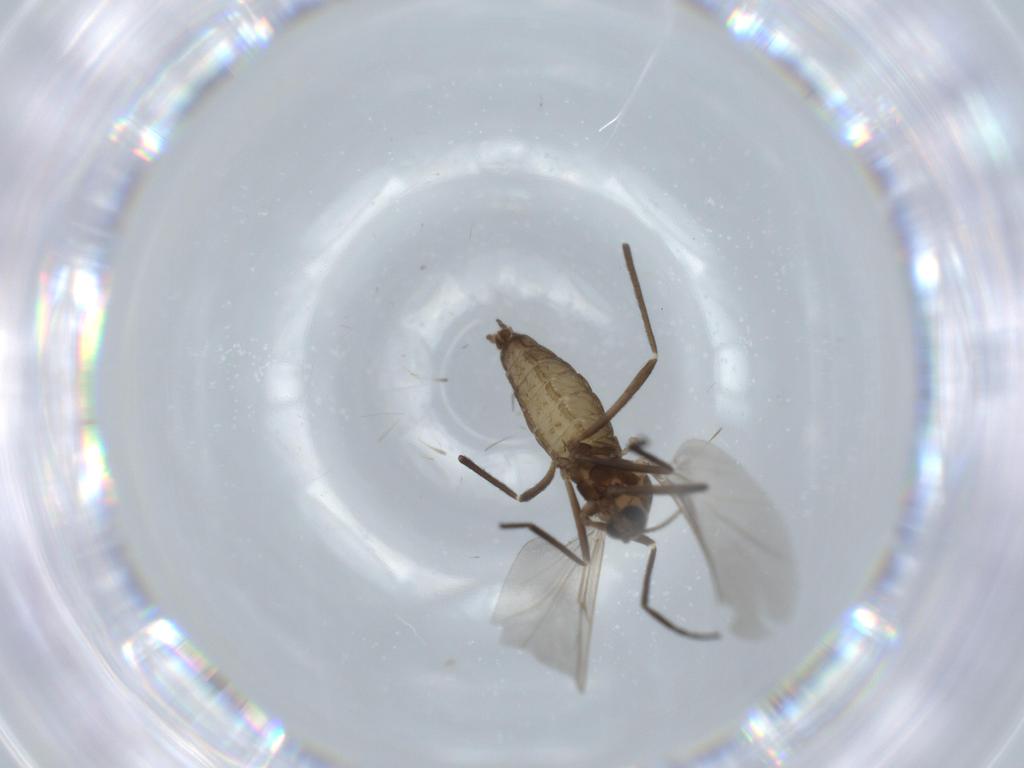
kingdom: Animalia
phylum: Arthropoda
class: Insecta
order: Diptera
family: Cecidomyiidae
